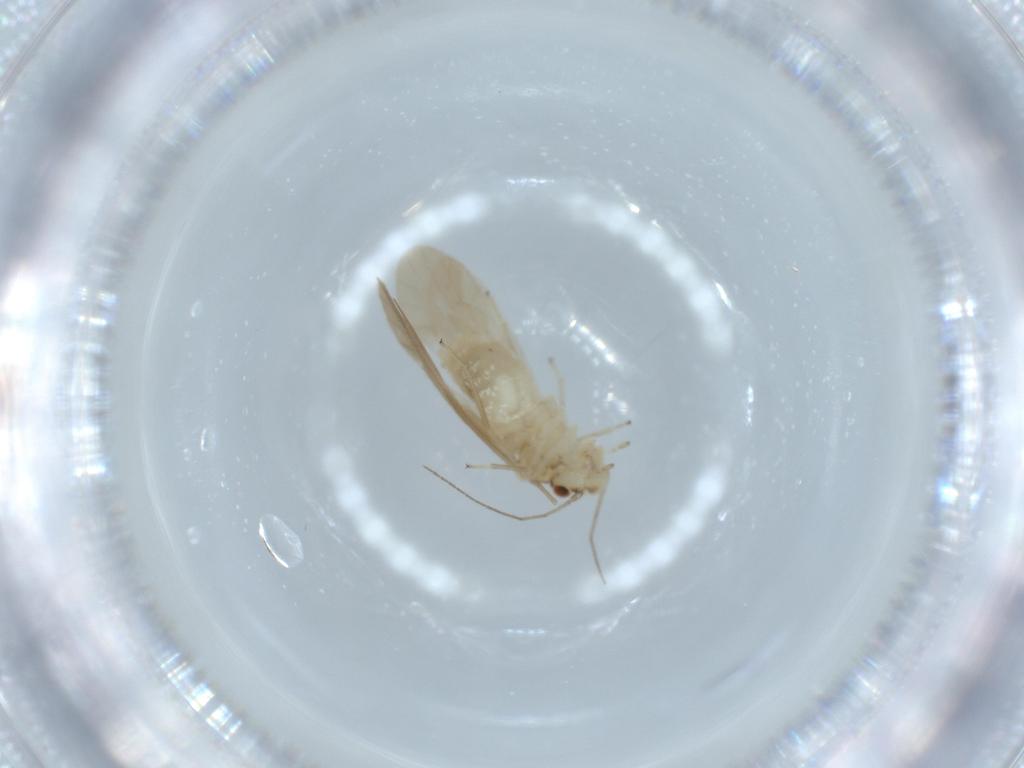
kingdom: Animalia
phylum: Arthropoda
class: Insecta
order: Psocodea
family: Caeciliusidae
